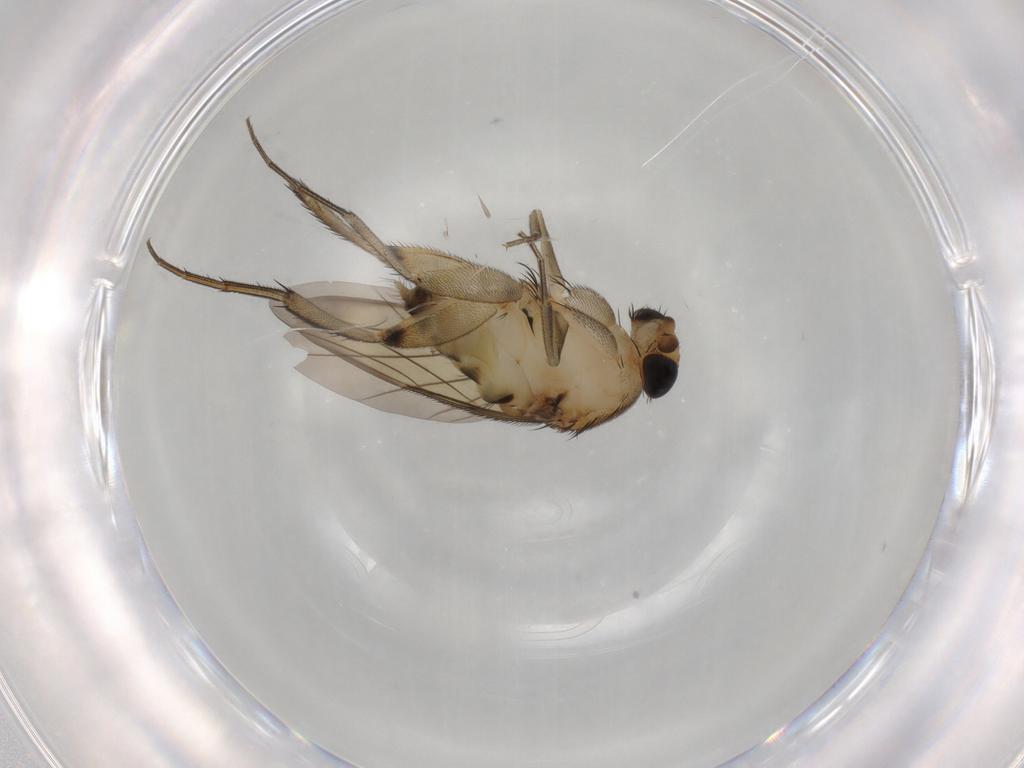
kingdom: Animalia
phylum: Arthropoda
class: Insecta
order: Diptera
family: Phoridae
